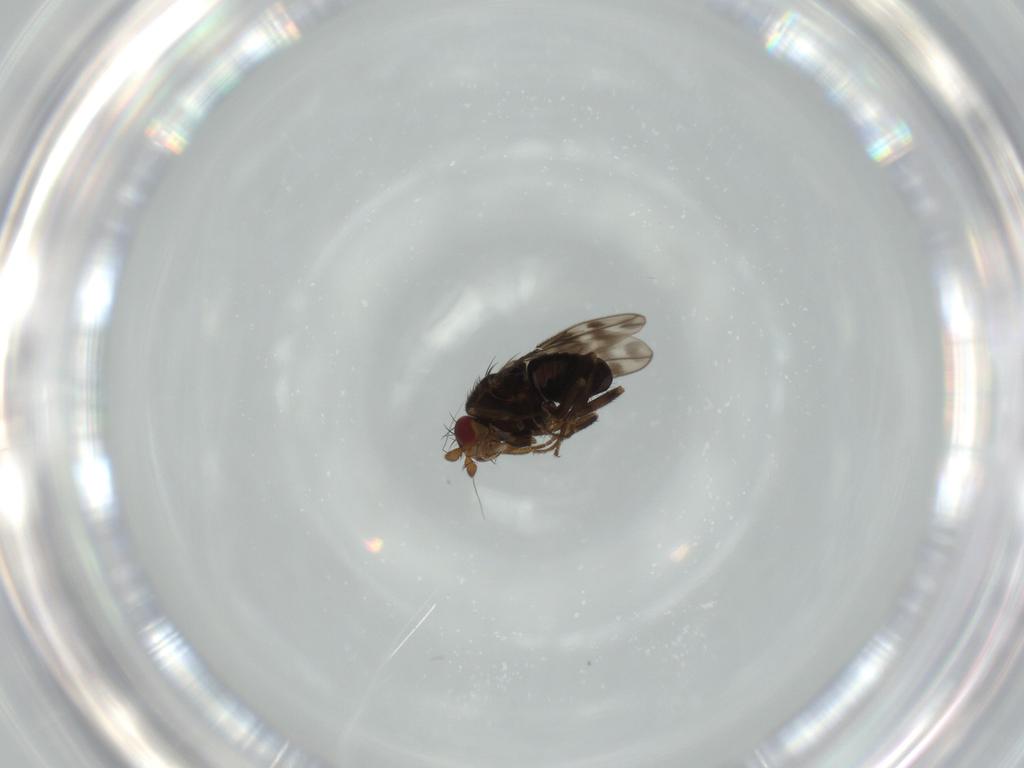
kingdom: Animalia
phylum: Arthropoda
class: Insecta
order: Diptera
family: Sphaeroceridae
